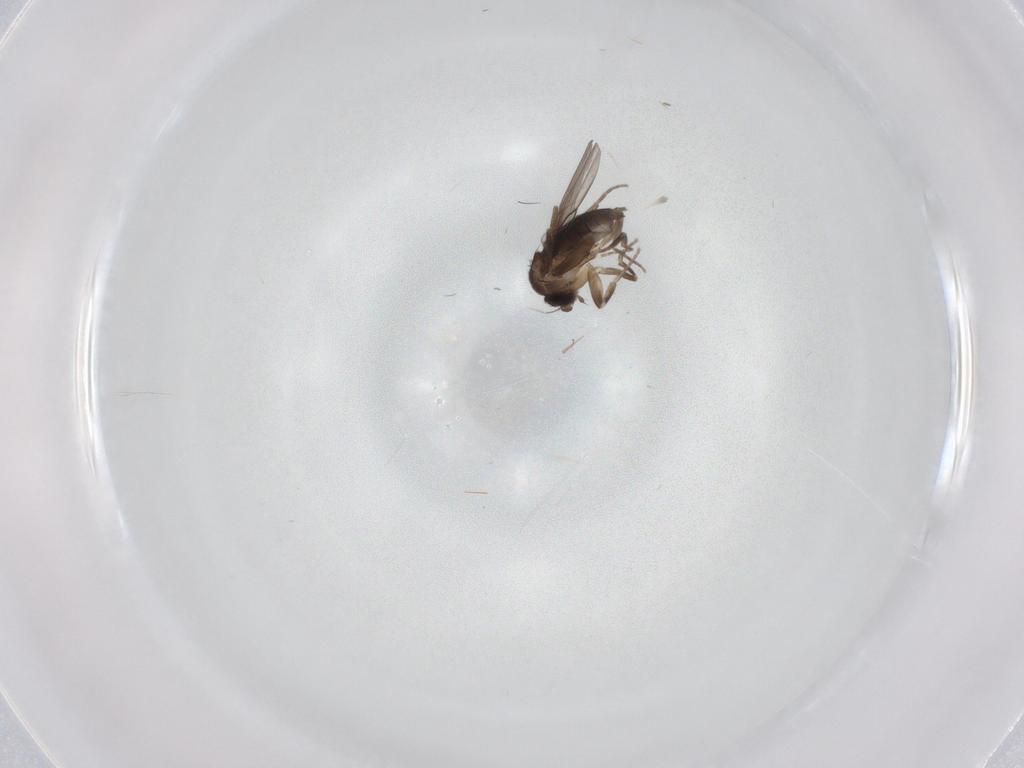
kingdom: Animalia
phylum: Arthropoda
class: Insecta
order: Diptera
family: Phoridae
